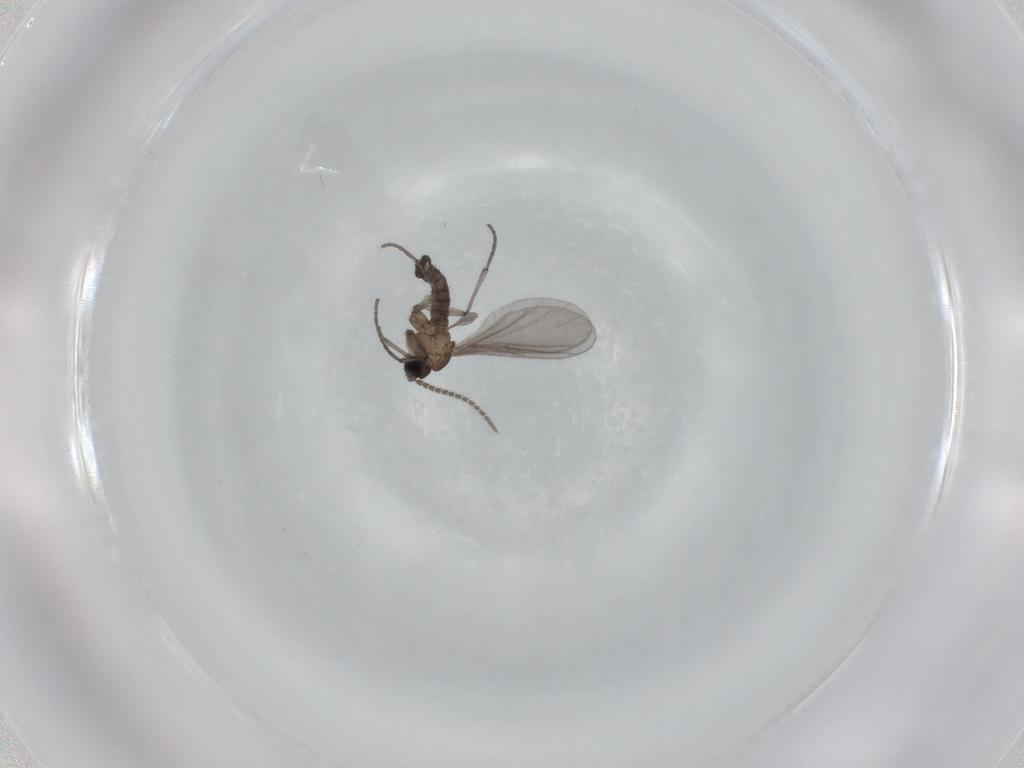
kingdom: Animalia
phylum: Arthropoda
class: Insecta
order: Diptera
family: Sciaridae
